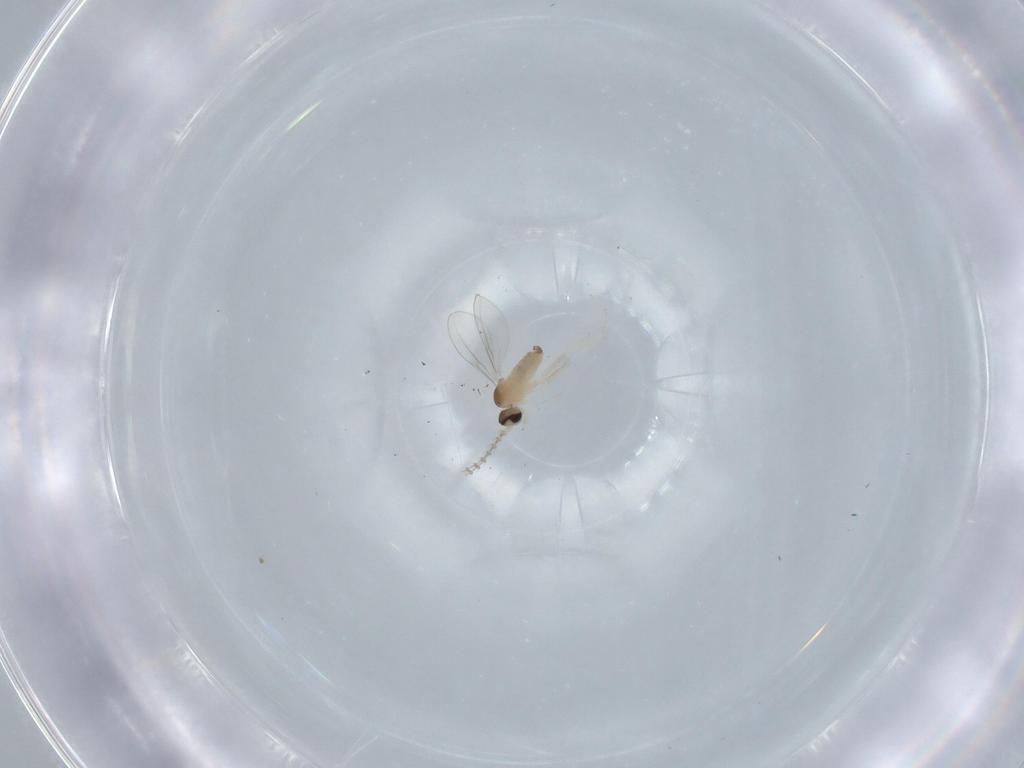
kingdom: Animalia
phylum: Arthropoda
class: Insecta
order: Diptera
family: Cecidomyiidae
